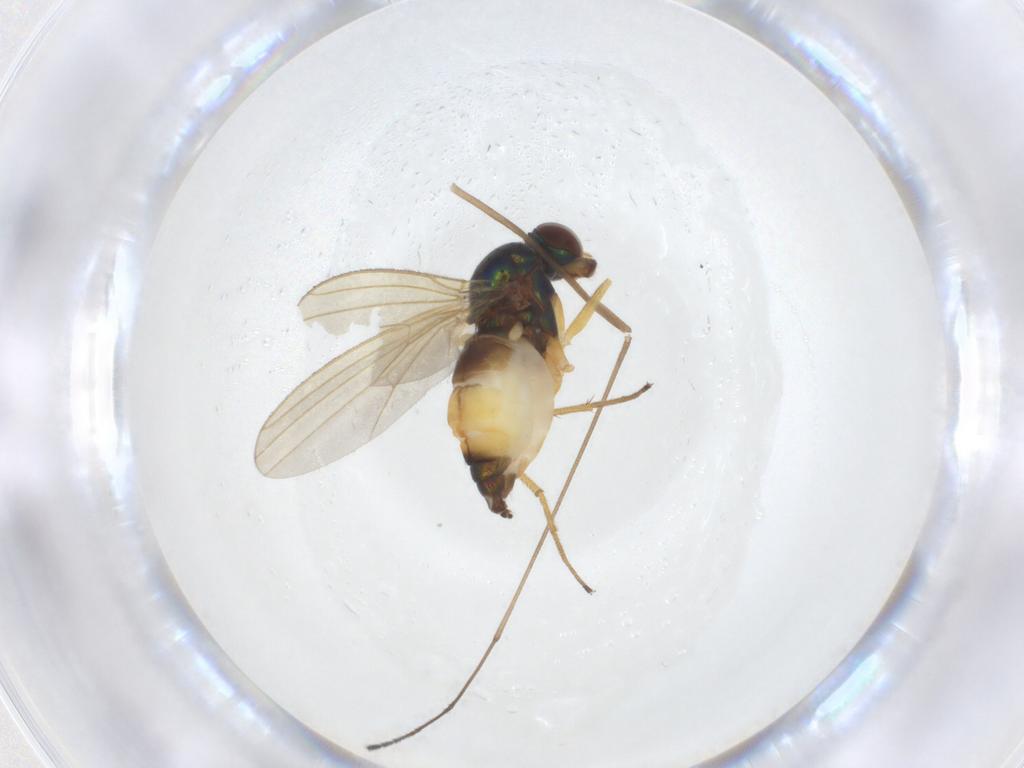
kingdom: Animalia
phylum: Arthropoda
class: Insecta
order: Diptera
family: Dolichopodidae
